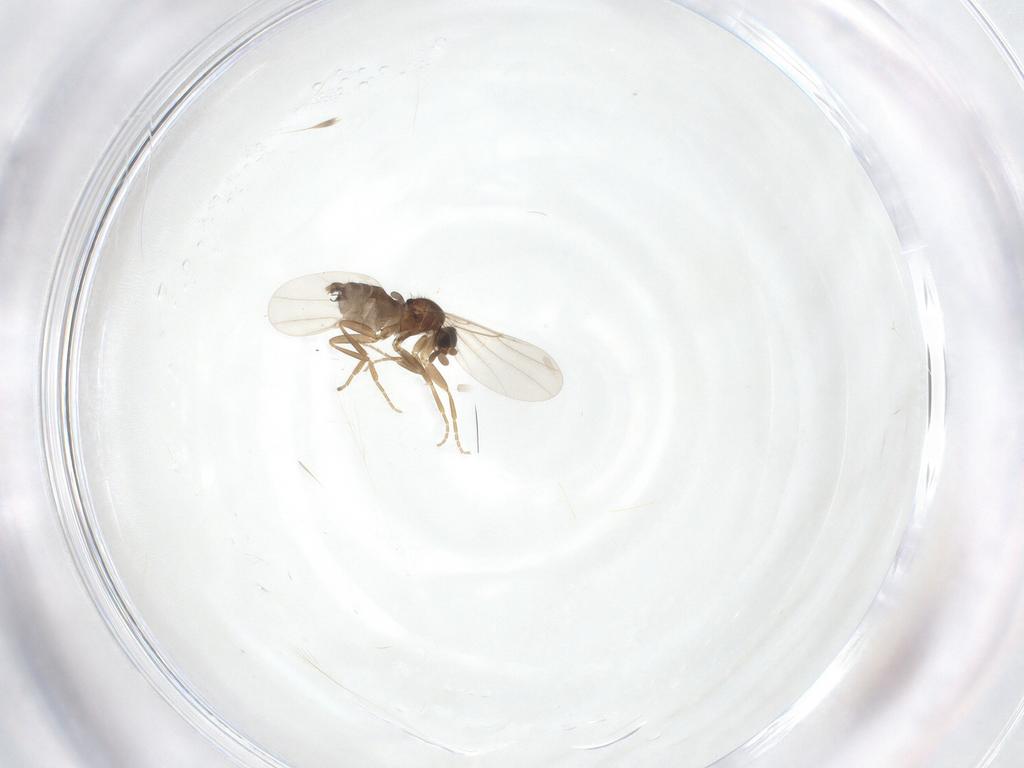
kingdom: Animalia
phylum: Arthropoda
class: Insecta
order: Diptera
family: Phoridae
